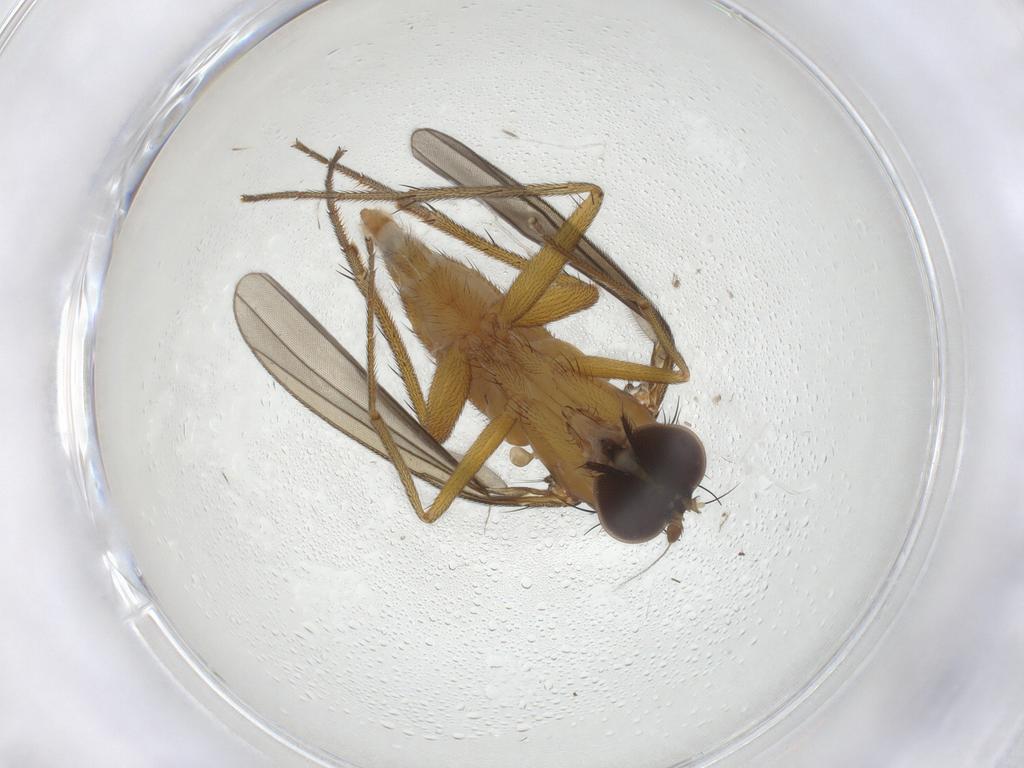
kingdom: Animalia
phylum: Arthropoda
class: Insecta
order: Diptera
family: Dolichopodidae
